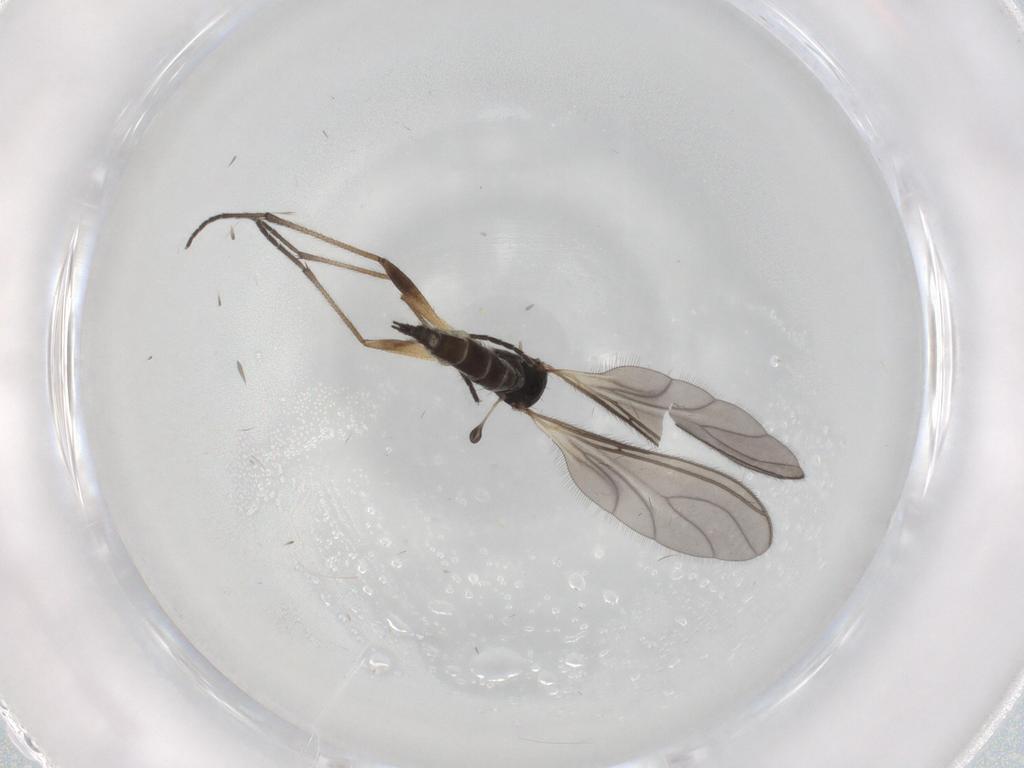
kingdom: Animalia
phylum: Arthropoda
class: Insecta
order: Diptera
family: Sciaridae
